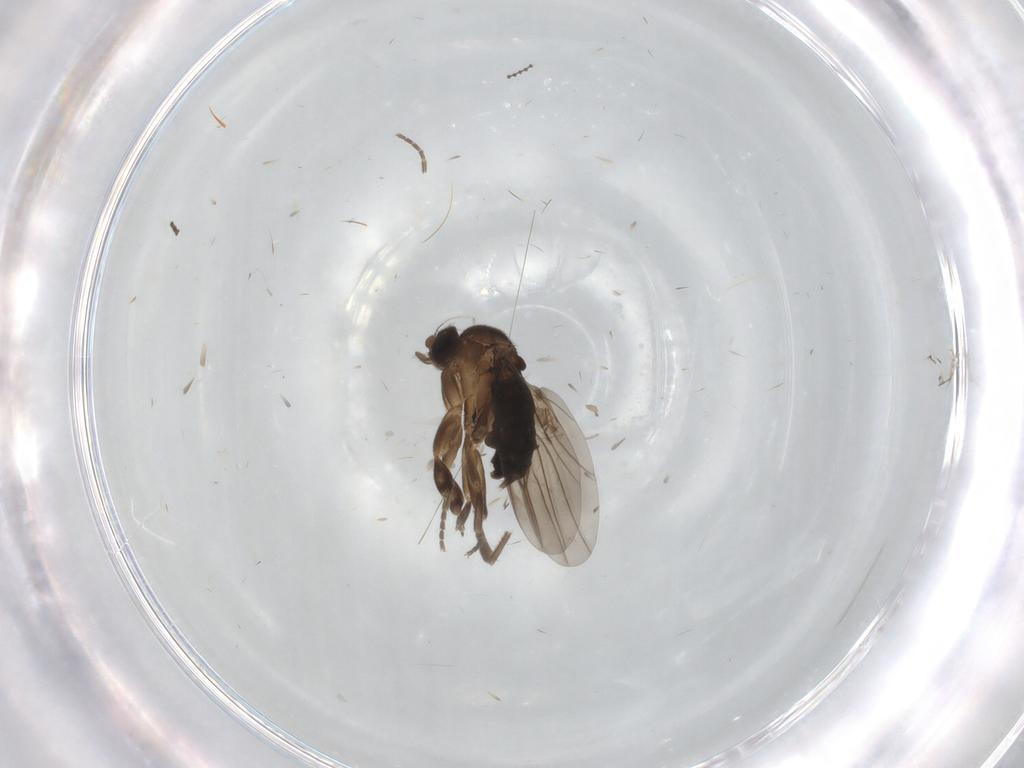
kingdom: Animalia
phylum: Arthropoda
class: Insecta
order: Diptera
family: Phoridae
